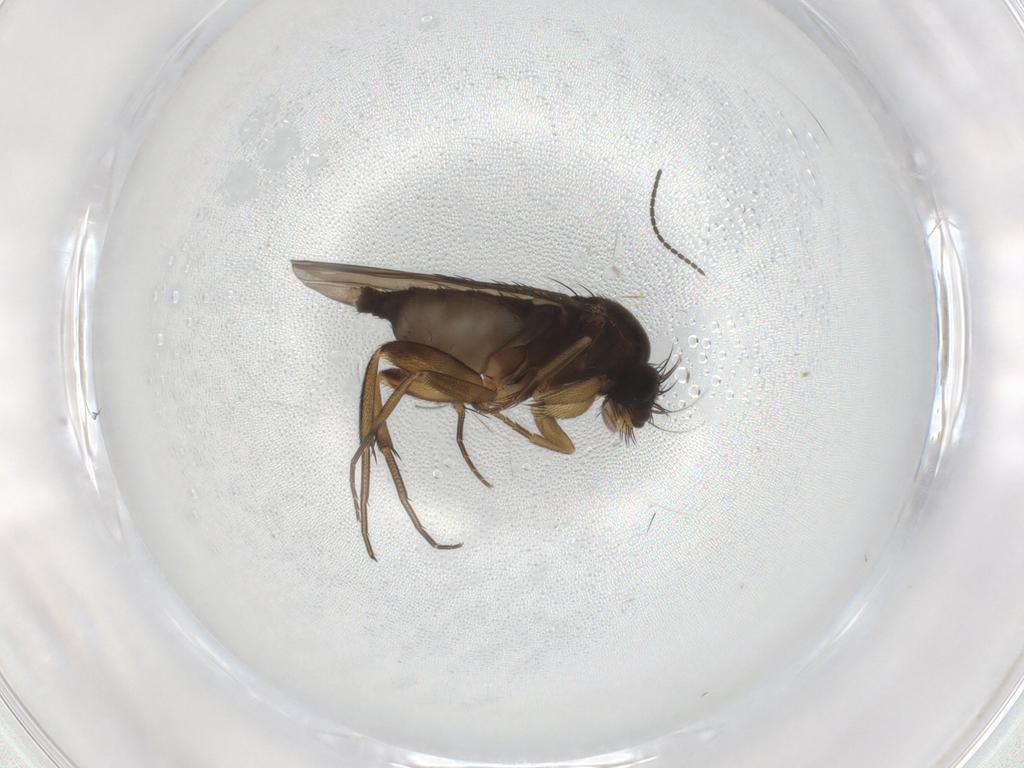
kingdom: Animalia
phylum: Arthropoda
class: Insecta
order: Diptera
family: Phoridae
